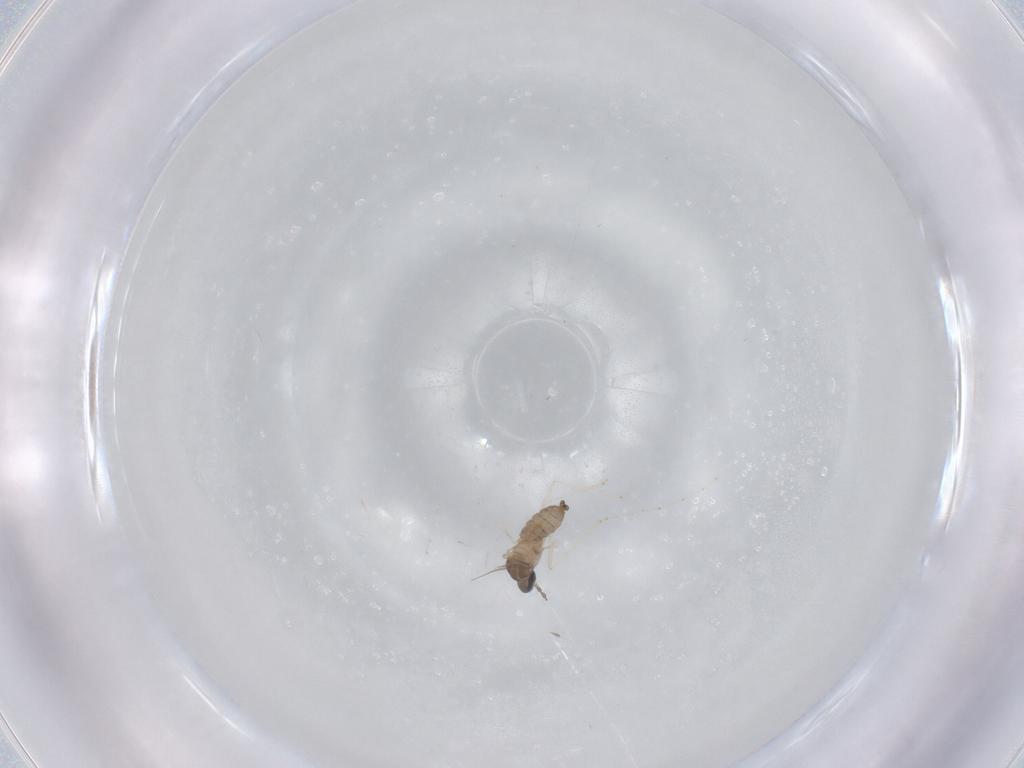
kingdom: Animalia
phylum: Arthropoda
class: Insecta
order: Diptera
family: Cecidomyiidae
